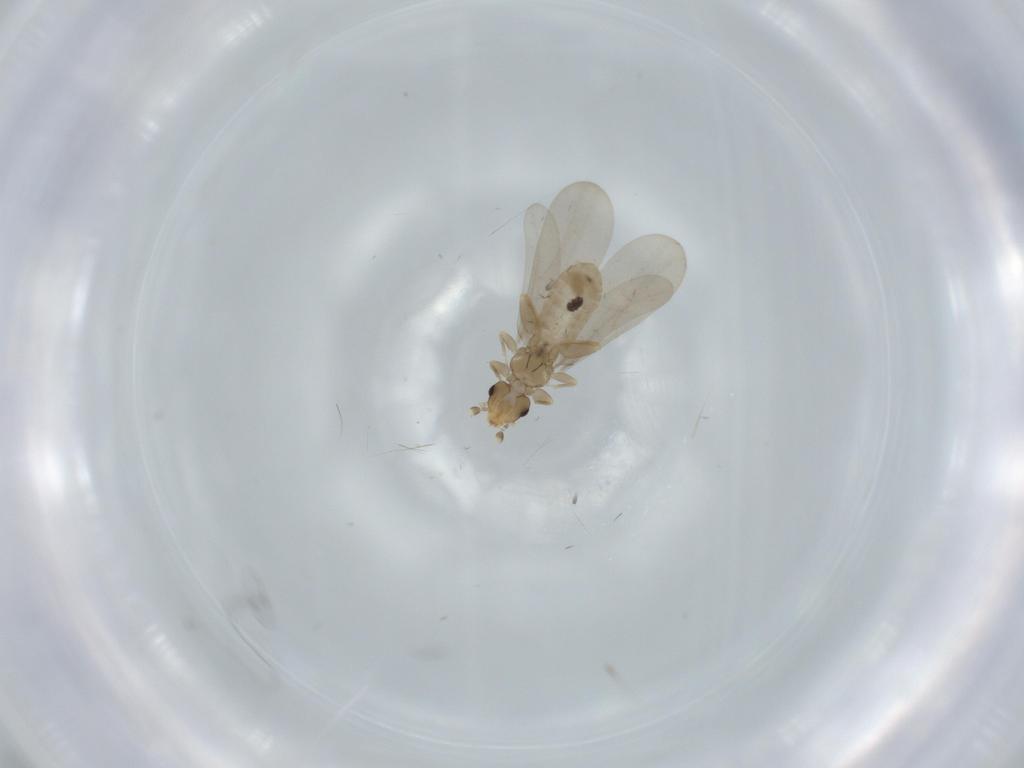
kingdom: Animalia
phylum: Arthropoda
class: Insecta
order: Psocodea
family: Liposcelididae
